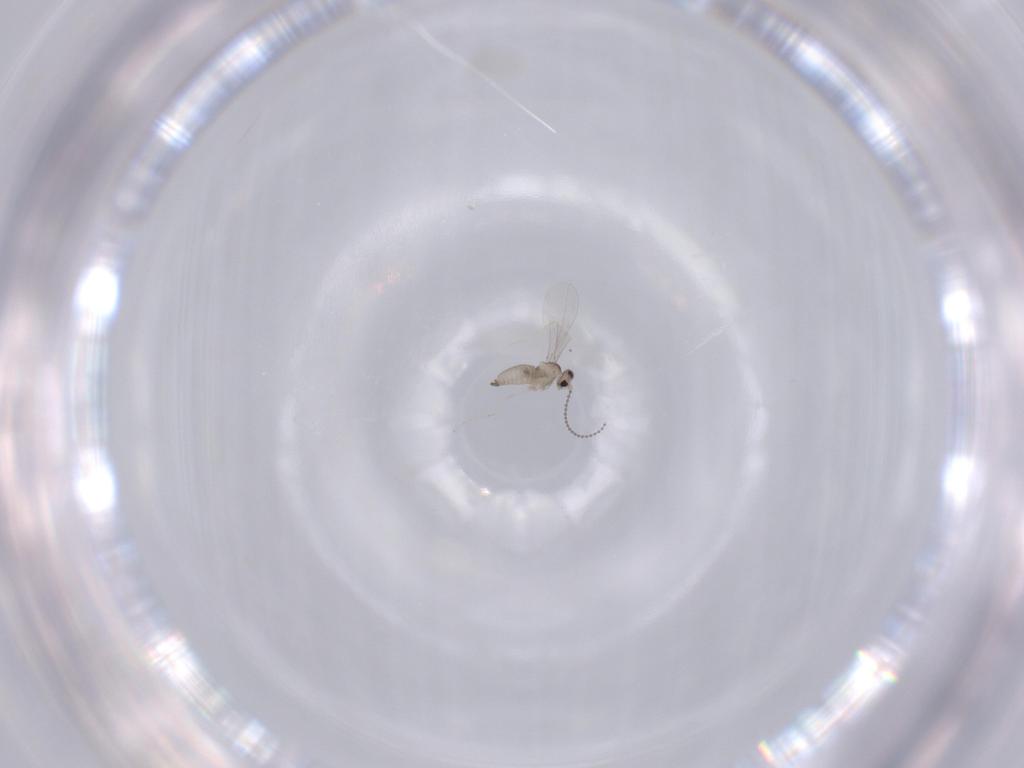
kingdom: Animalia
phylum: Arthropoda
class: Insecta
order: Diptera
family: Cecidomyiidae
